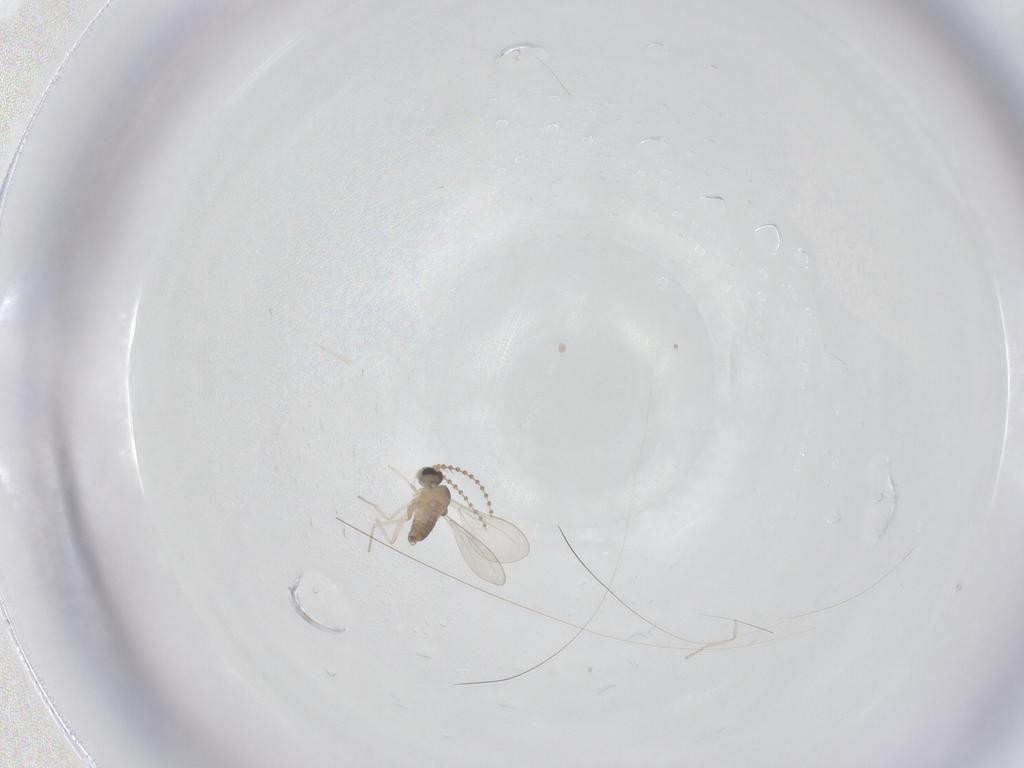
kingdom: Animalia
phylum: Arthropoda
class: Insecta
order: Diptera
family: Cecidomyiidae
